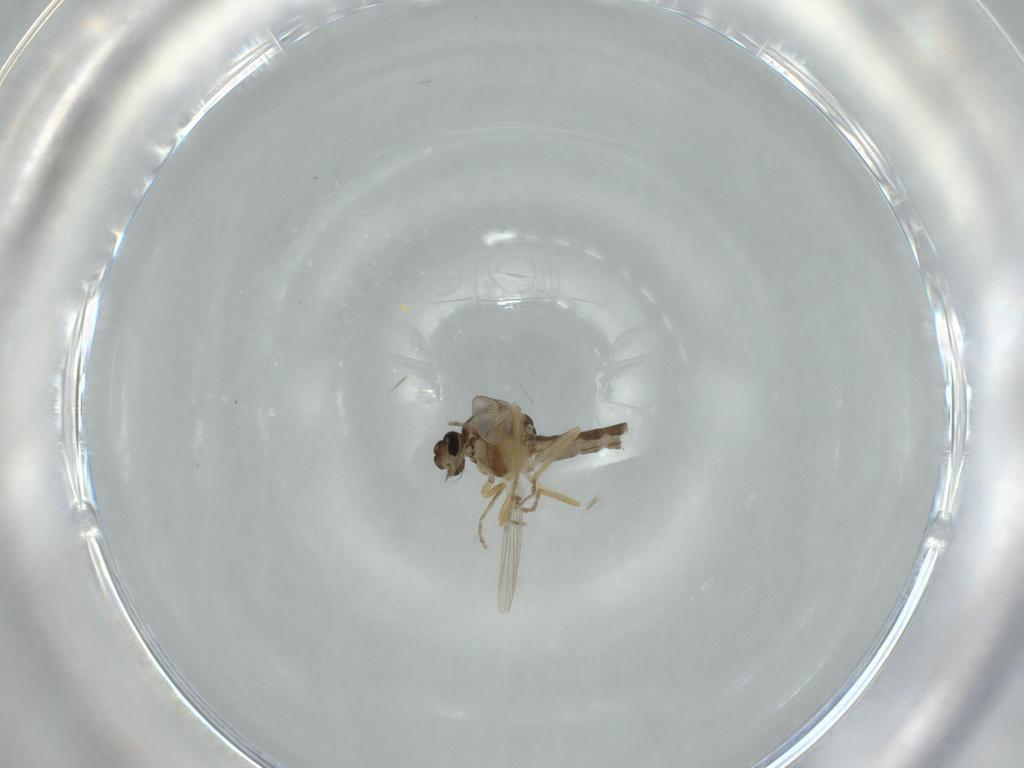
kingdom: Animalia
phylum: Arthropoda
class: Insecta
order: Diptera
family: Ceratopogonidae
